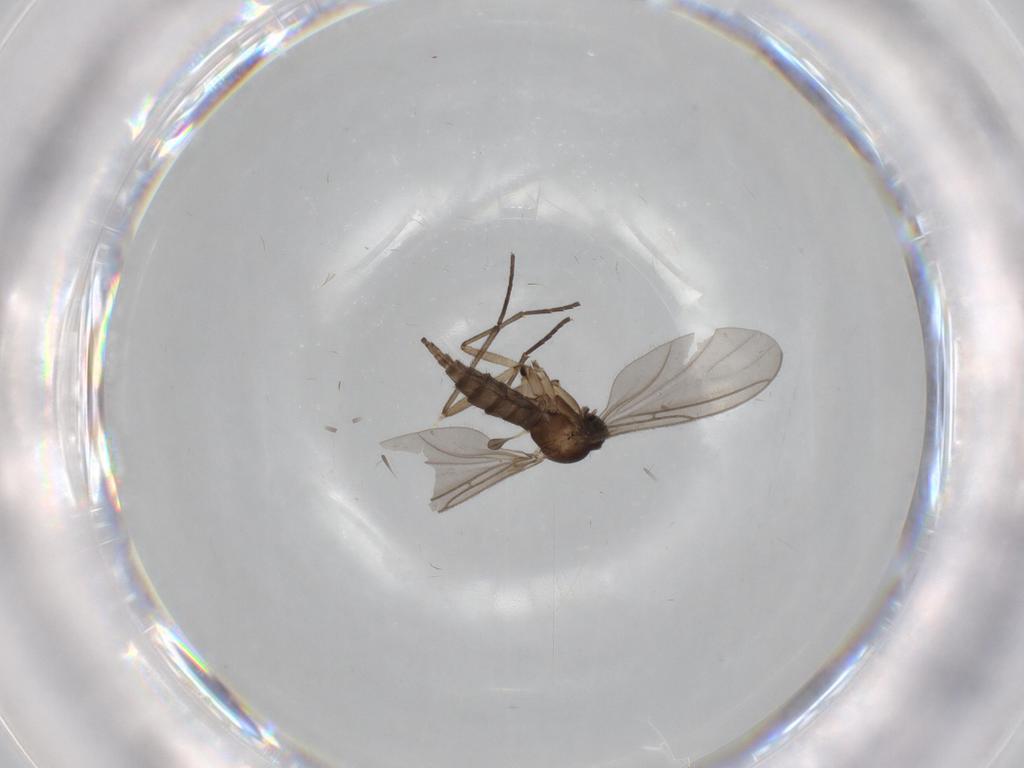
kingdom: Animalia
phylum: Arthropoda
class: Insecta
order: Diptera
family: Sciaridae
